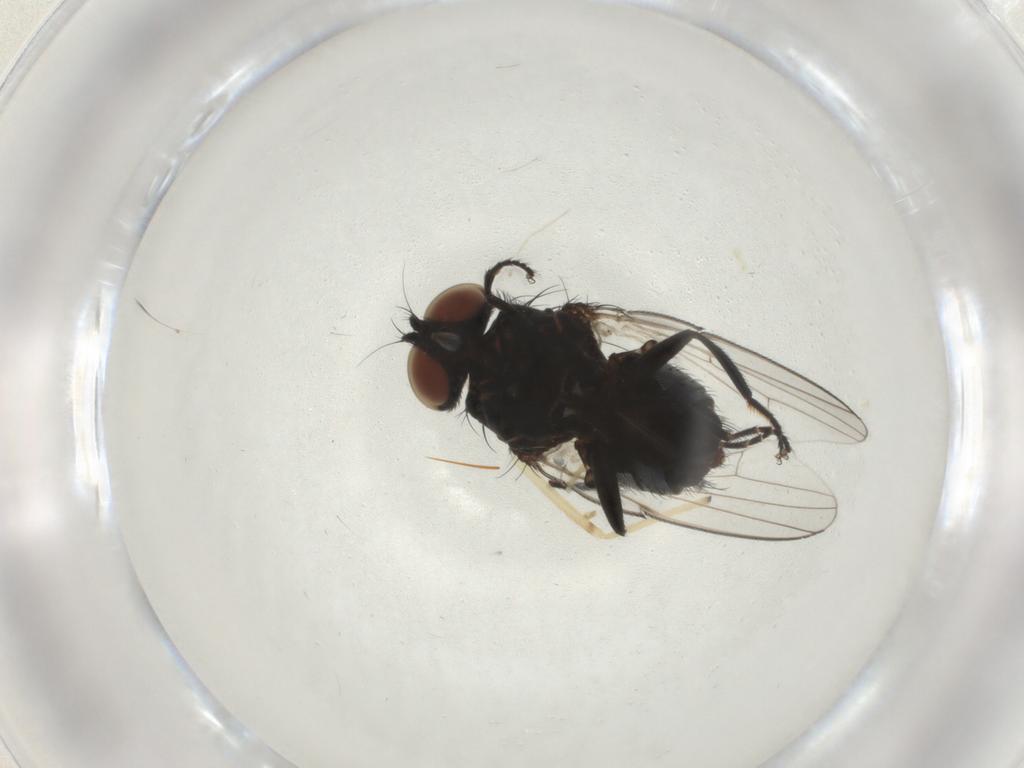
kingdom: Animalia
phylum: Arthropoda
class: Insecta
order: Diptera
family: Milichiidae
